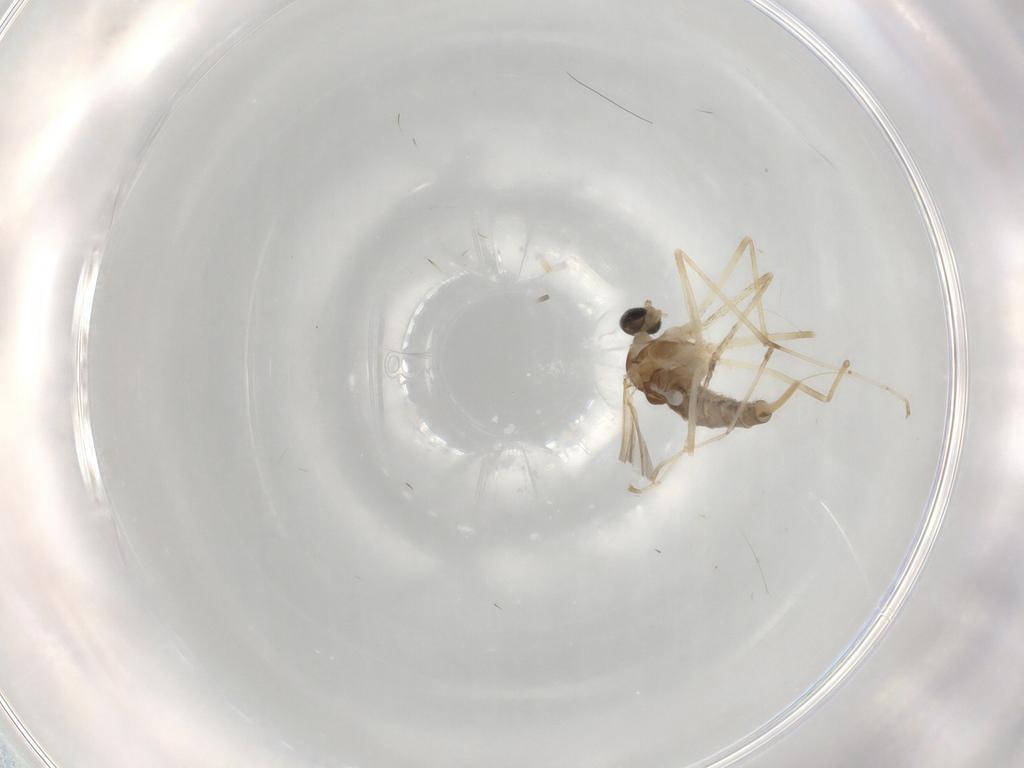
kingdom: Animalia
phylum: Arthropoda
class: Insecta
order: Diptera
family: Cecidomyiidae
